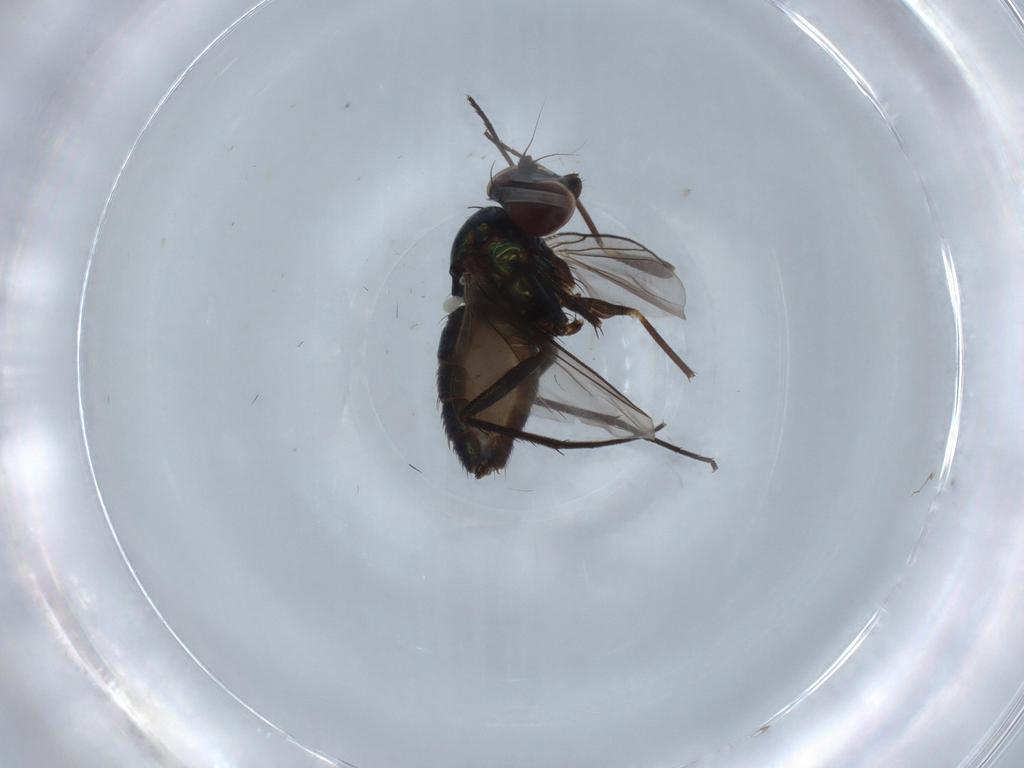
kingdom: Animalia
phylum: Arthropoda
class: Insecta
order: Diptera
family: Dolichopodidae
